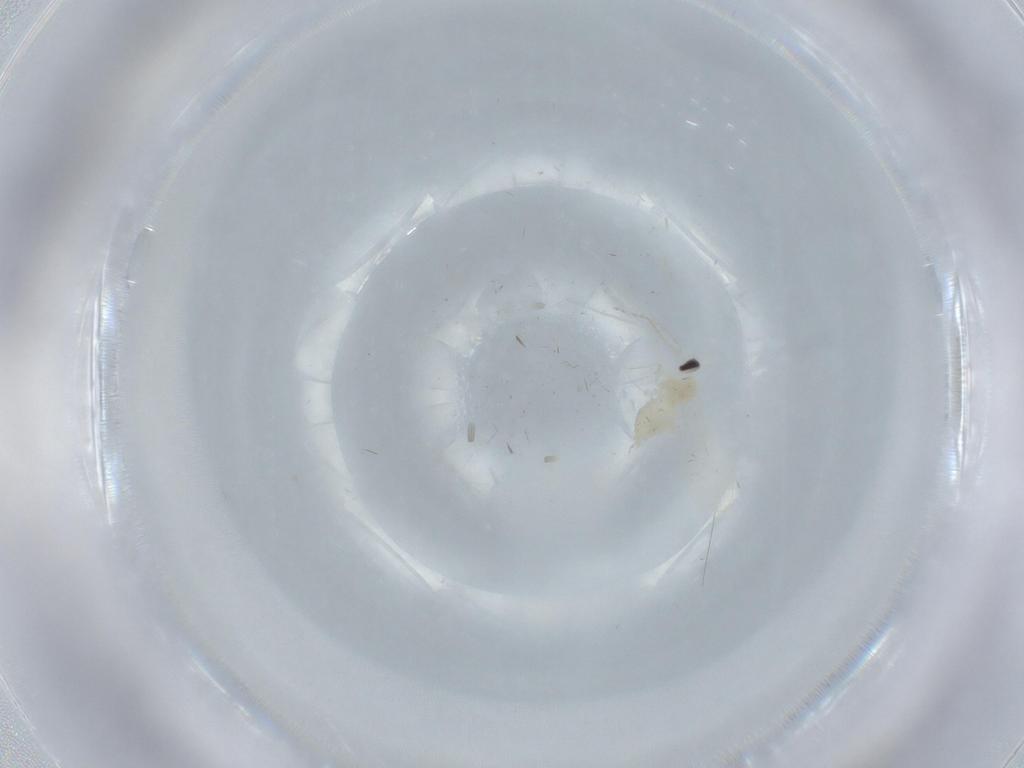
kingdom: Animalia
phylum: Arthropoda
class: Insecta
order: Diptera
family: Cecidomyiidae
